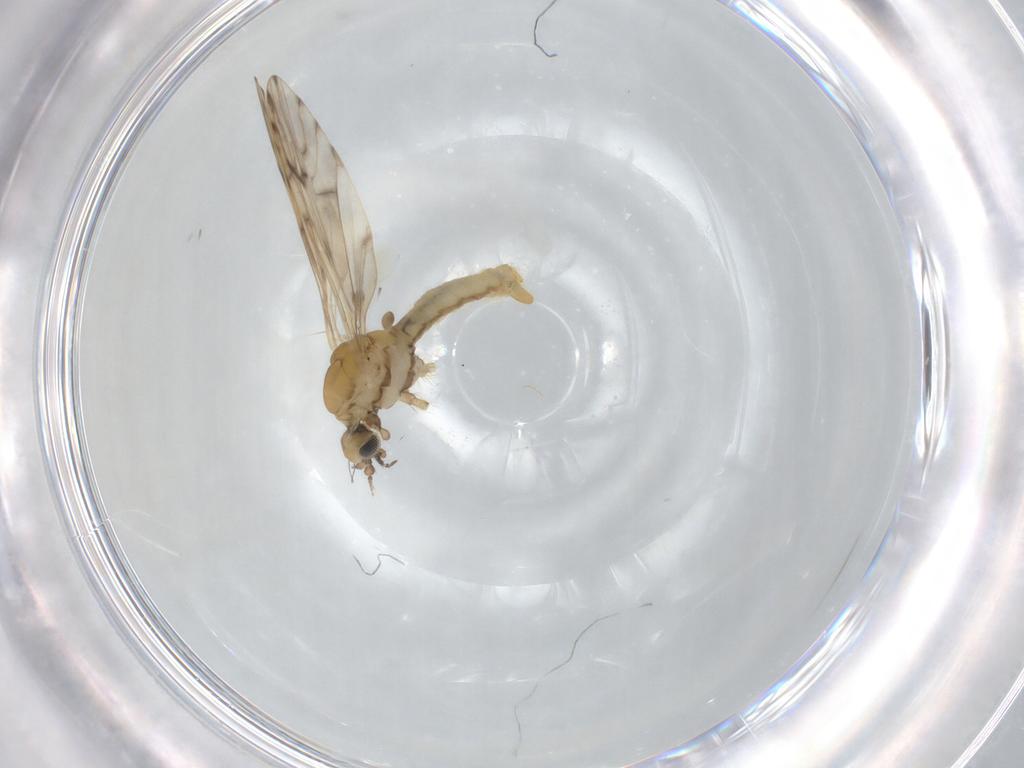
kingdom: Animalia
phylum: Arthropoda
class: Insecta
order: Diptera
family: Limoniidae
